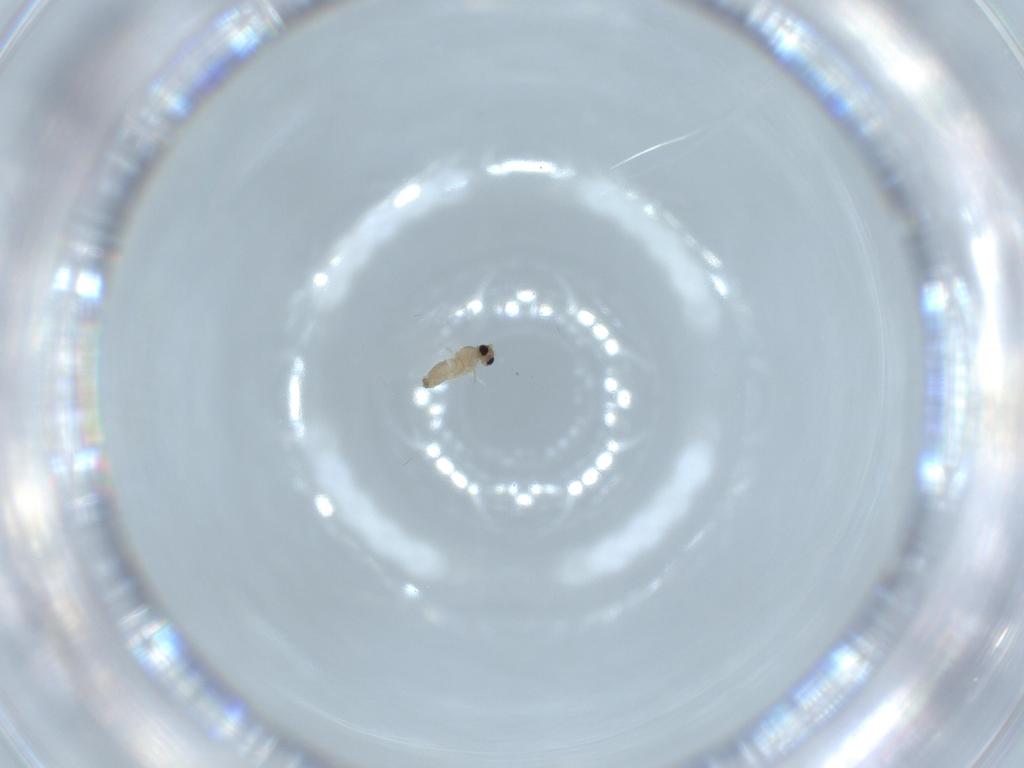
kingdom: Animalia
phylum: Arthropoda
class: Insecta
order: Diptera
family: Cecidomyiidae
